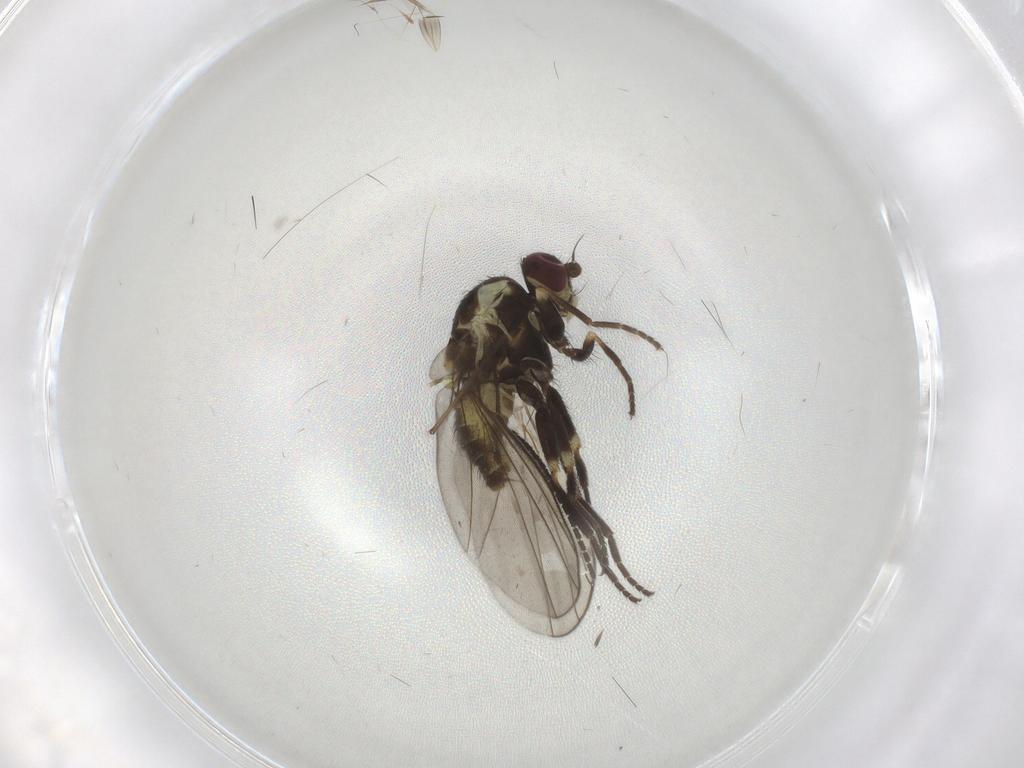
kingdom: Animalia
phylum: Arthropoda
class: Insecta
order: Diptera
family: Agromyzidae
